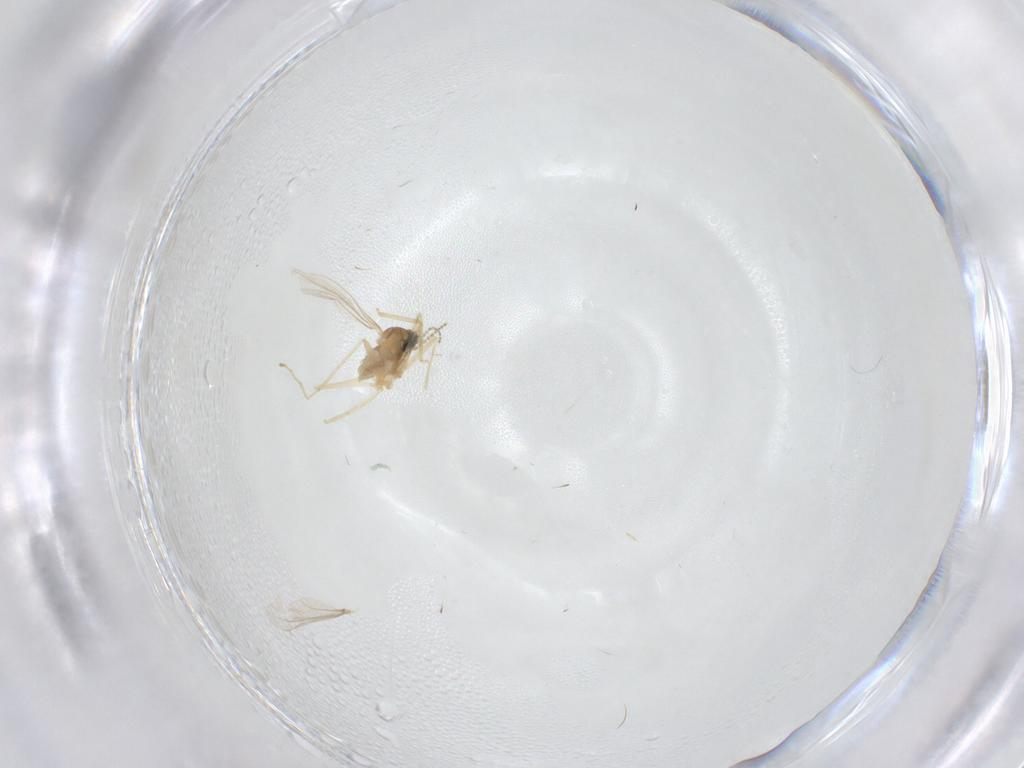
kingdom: Animalia
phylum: Arthropoda
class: Insecta
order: Diptera
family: Cecidomyiidae
